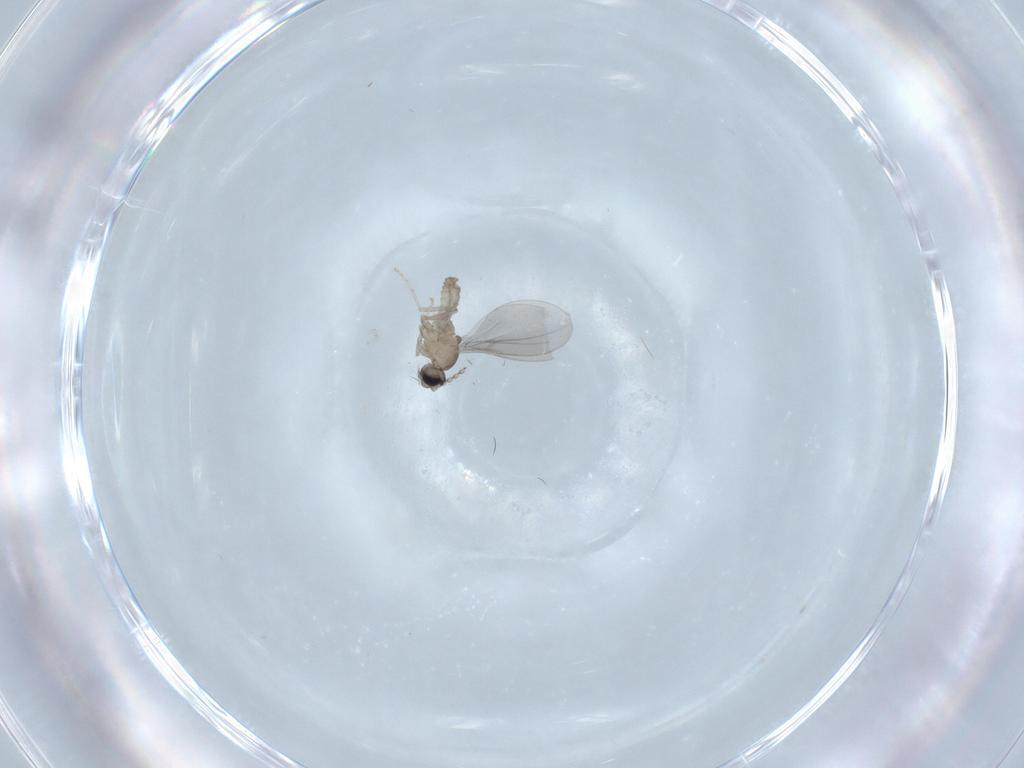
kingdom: Animalia
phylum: Arthropoda
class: Insecta
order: Diptera
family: Cecidomyiidae
